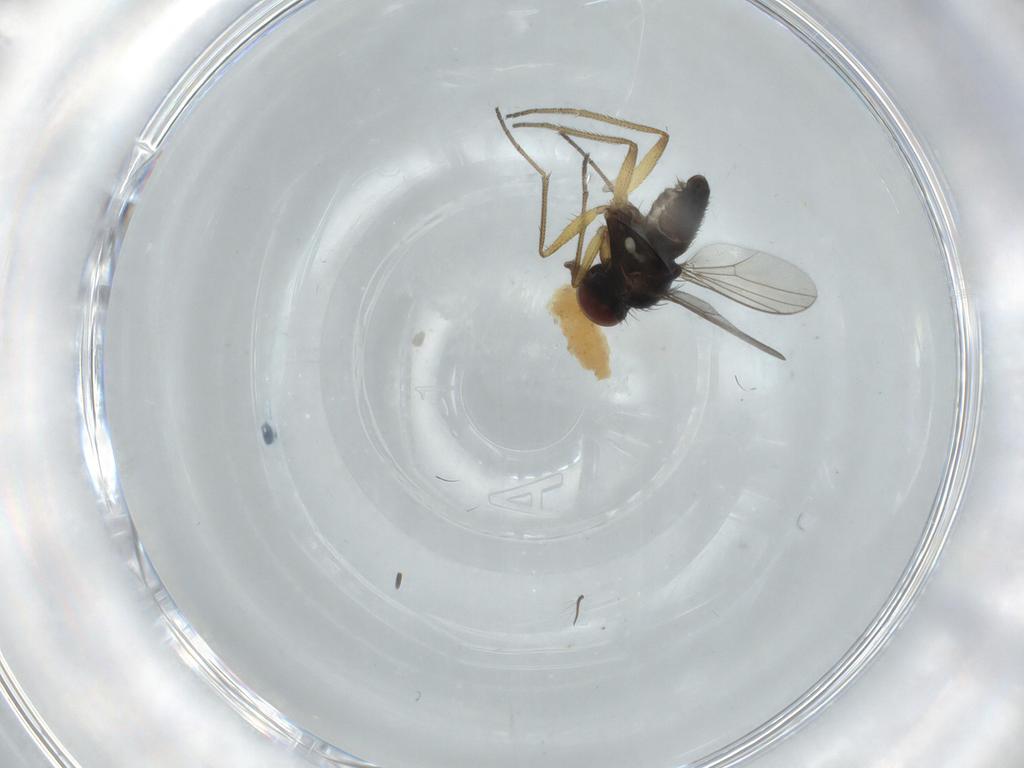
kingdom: Animalia
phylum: Arthropoda
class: Insecta
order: Diptera
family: Dolichopodidae
